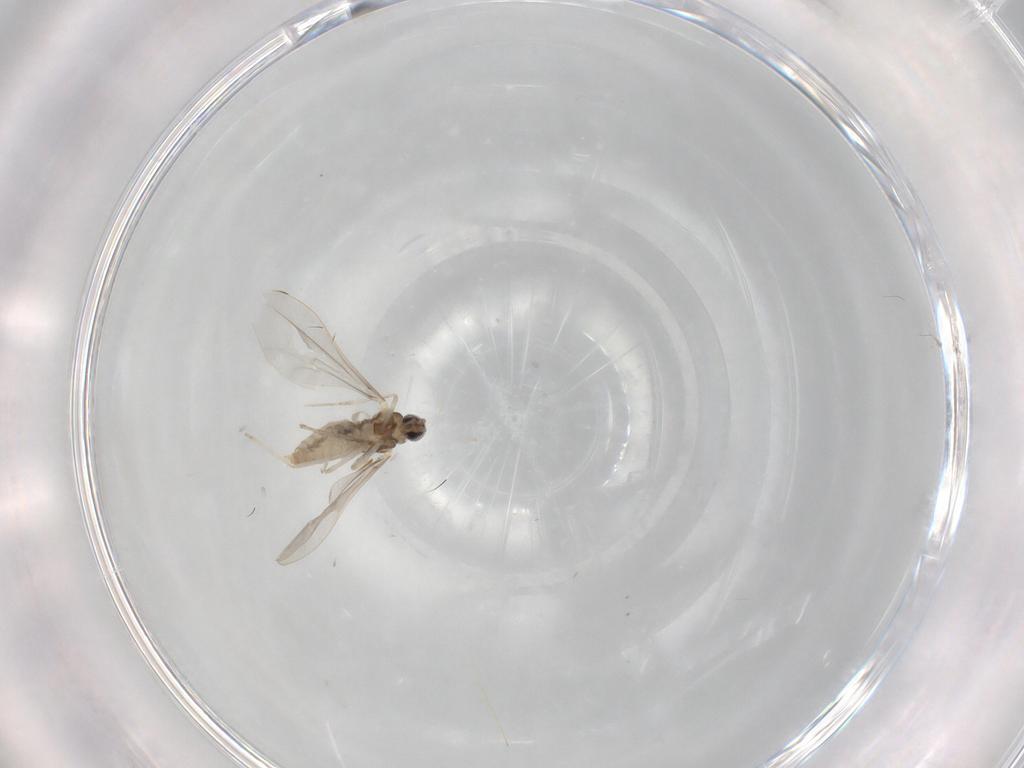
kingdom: Animalia
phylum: Arthropoda
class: Insecta
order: Diptera
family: Cecidomyiidae
